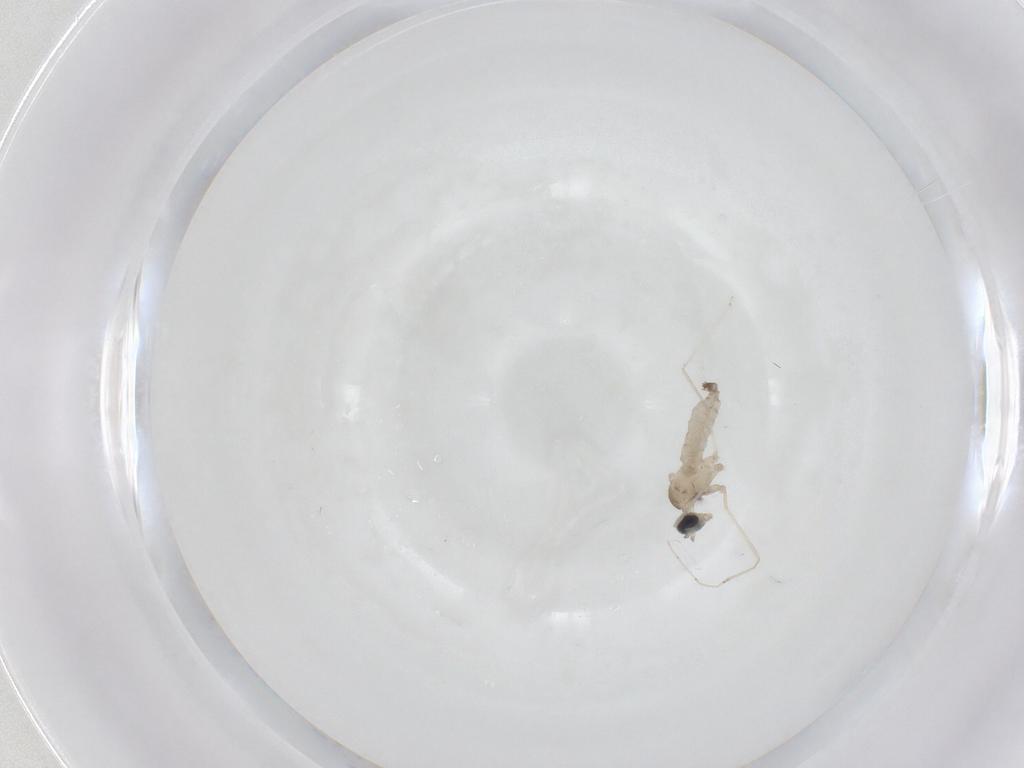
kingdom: Animalia
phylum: Arthropoda
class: Insecta
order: Diptera
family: Cecidomyiidae
